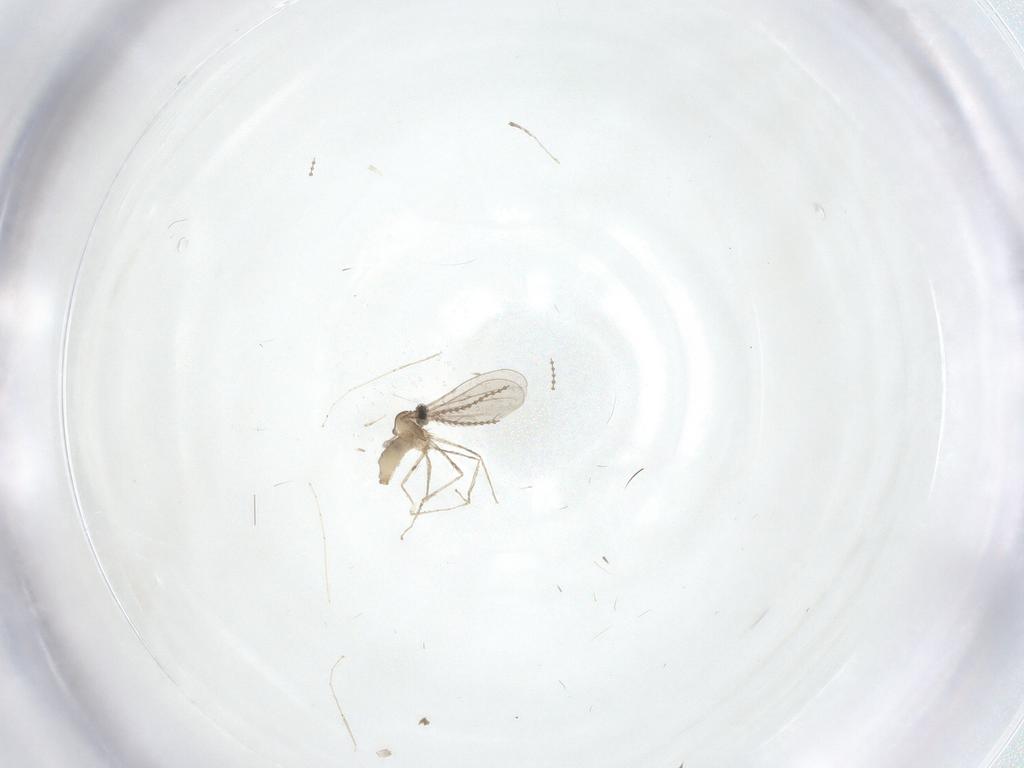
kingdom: Animalia
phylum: Arthropoda
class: Insecta
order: Diptera
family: Cecidomyiidae
